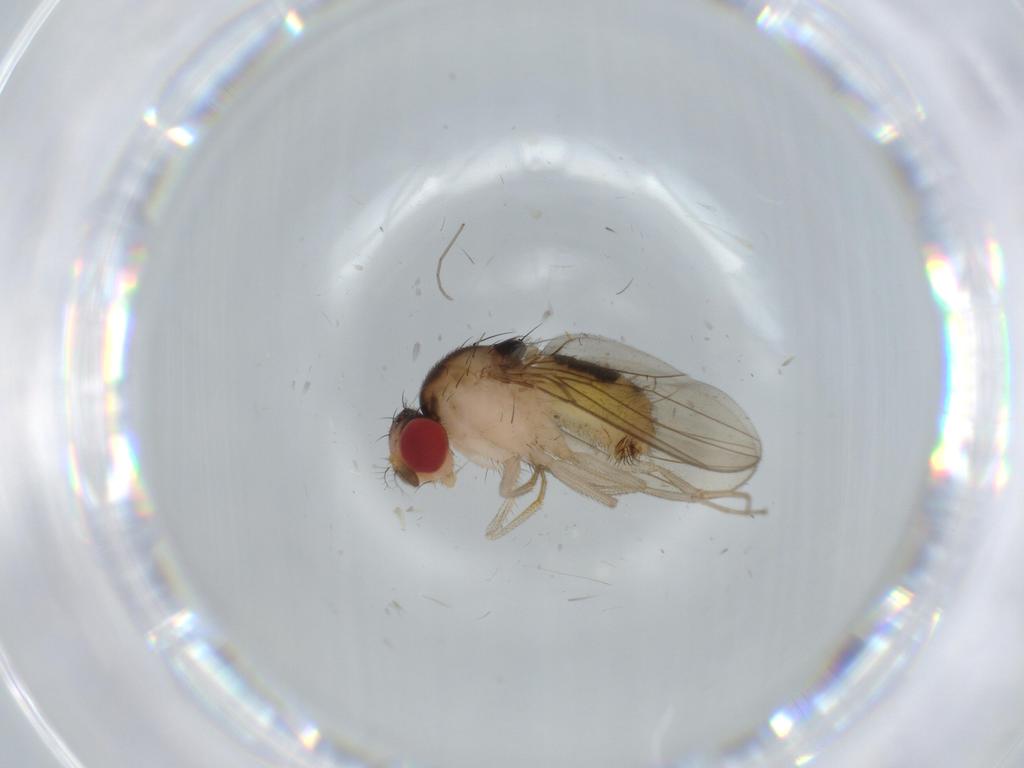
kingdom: Animalia
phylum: Arthropoda
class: Insecta
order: Diptera
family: Drosophilidae
